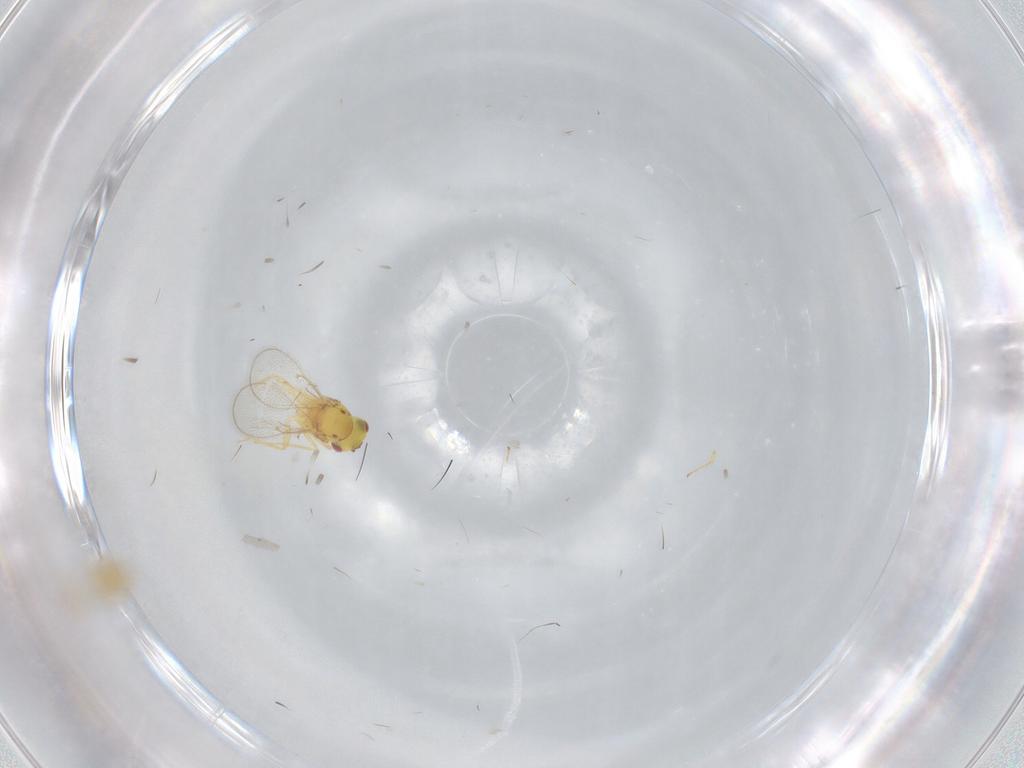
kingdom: Animalia
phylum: Arthropoda
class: Insecta
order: Hymenoptera
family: Eulophidae
